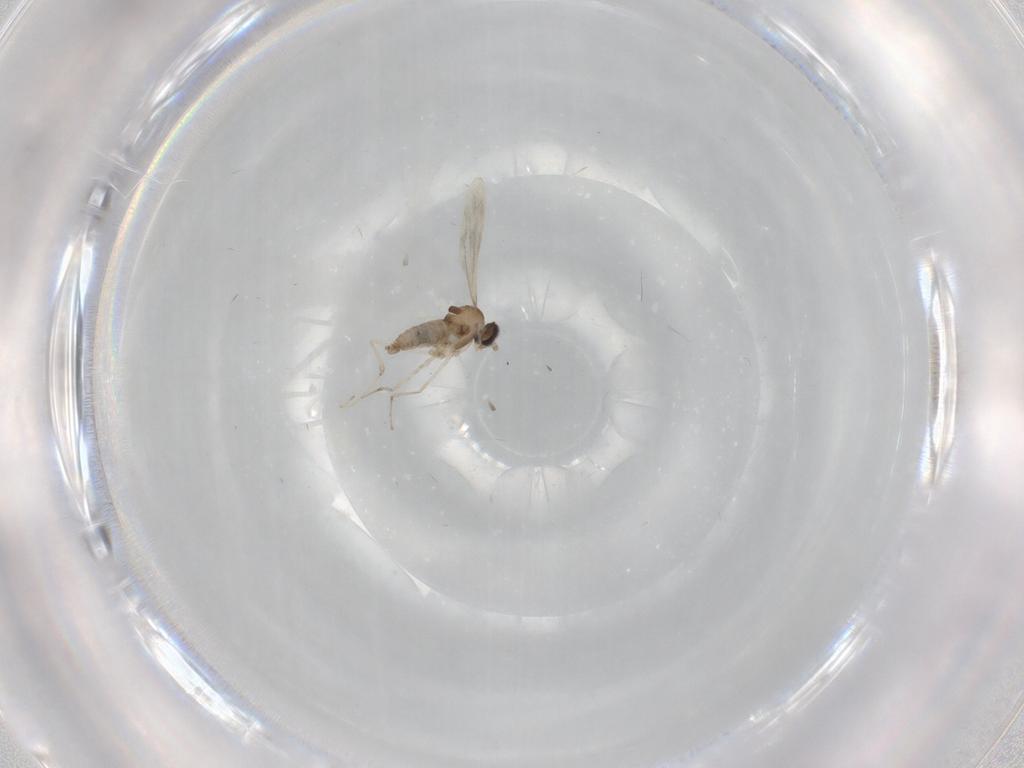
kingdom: Animalia
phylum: Arthropoda
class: Insecta
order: Diptera
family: Cecidomyiidae
